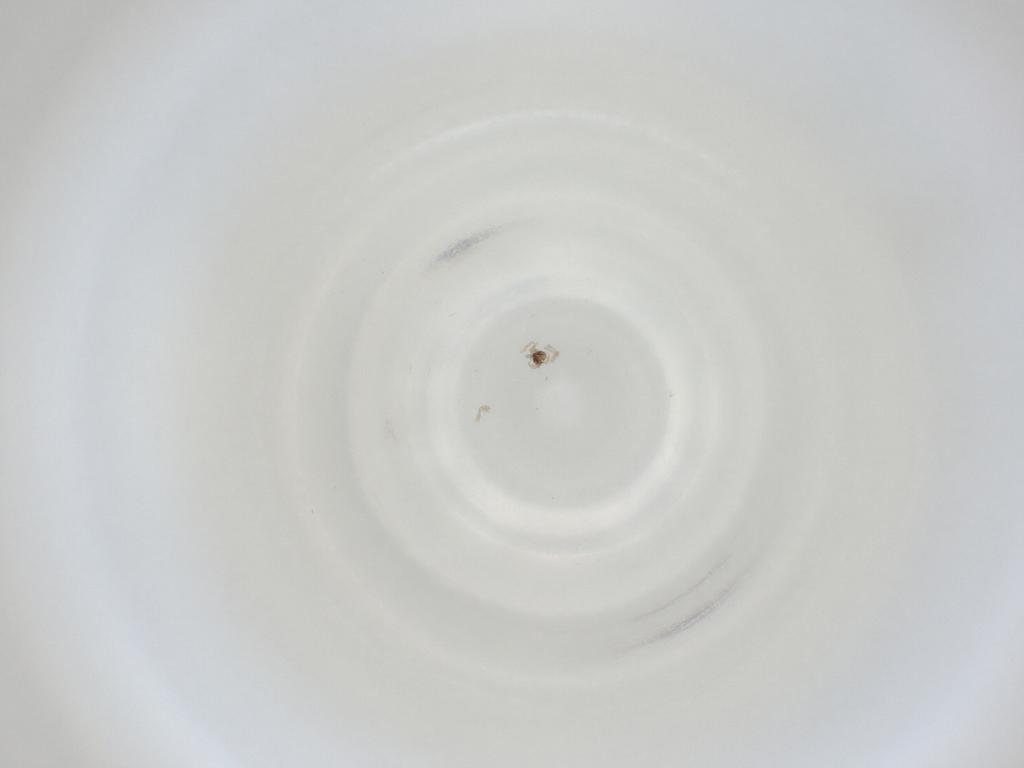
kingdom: Animalia
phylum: Arthropoda
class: Insecta
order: Diptera
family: Cecidomyiidae
